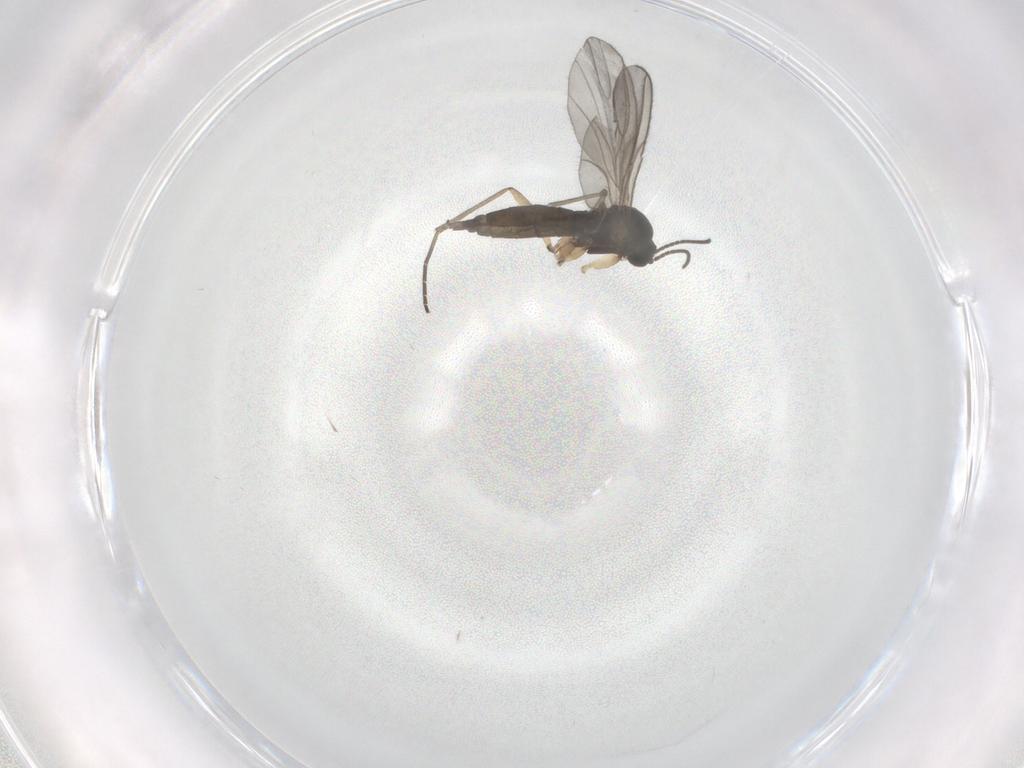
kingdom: Animalia
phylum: Arthropoda
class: Insecta
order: Diptera
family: Sciaridae
